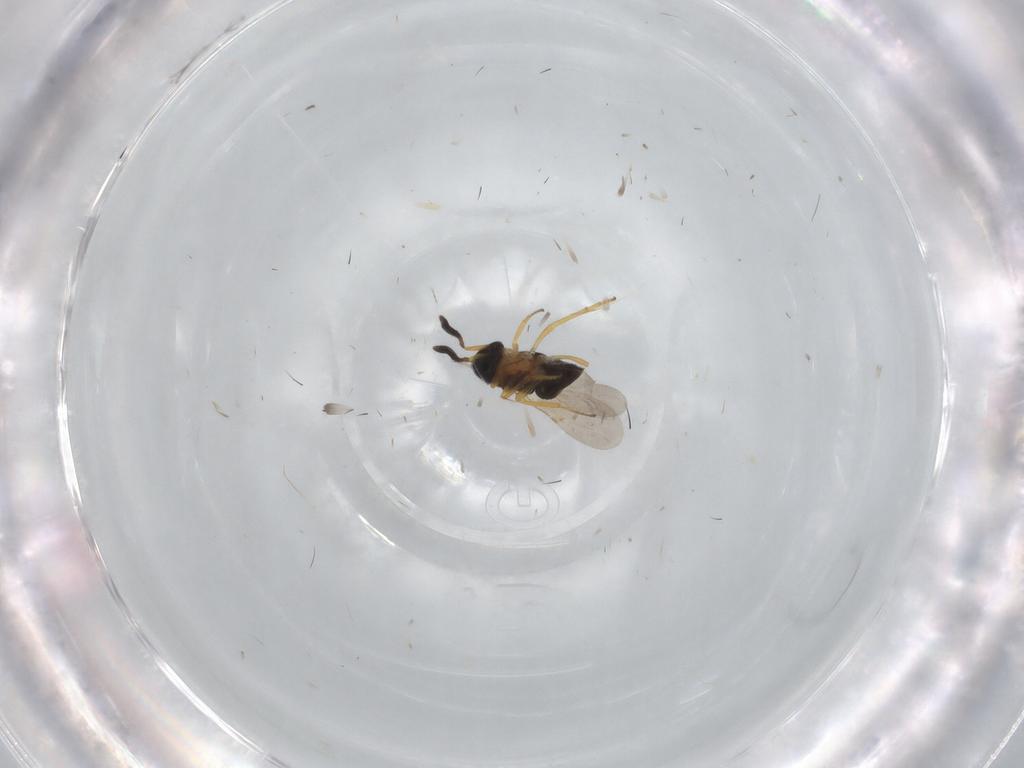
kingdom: Animalia
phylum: Arthropoda
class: Insecta
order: Hymenoptera
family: Encyrtidae
